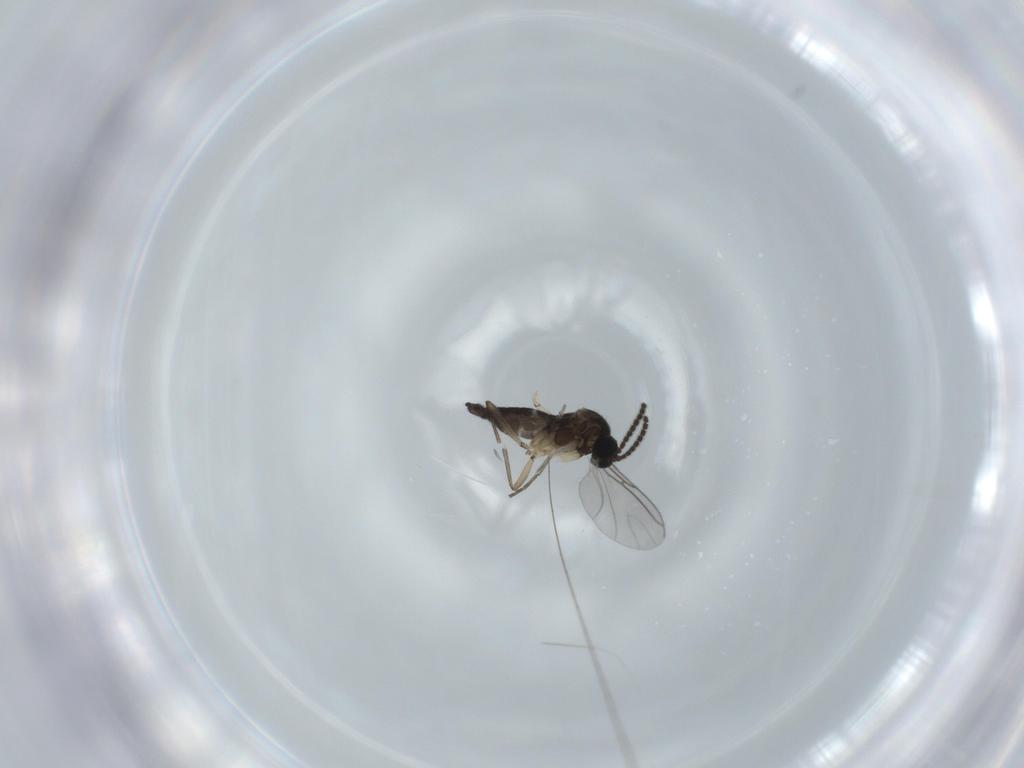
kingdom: Animalia
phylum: Arthropoda
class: Insecta
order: Diptera
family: Sciaridae
